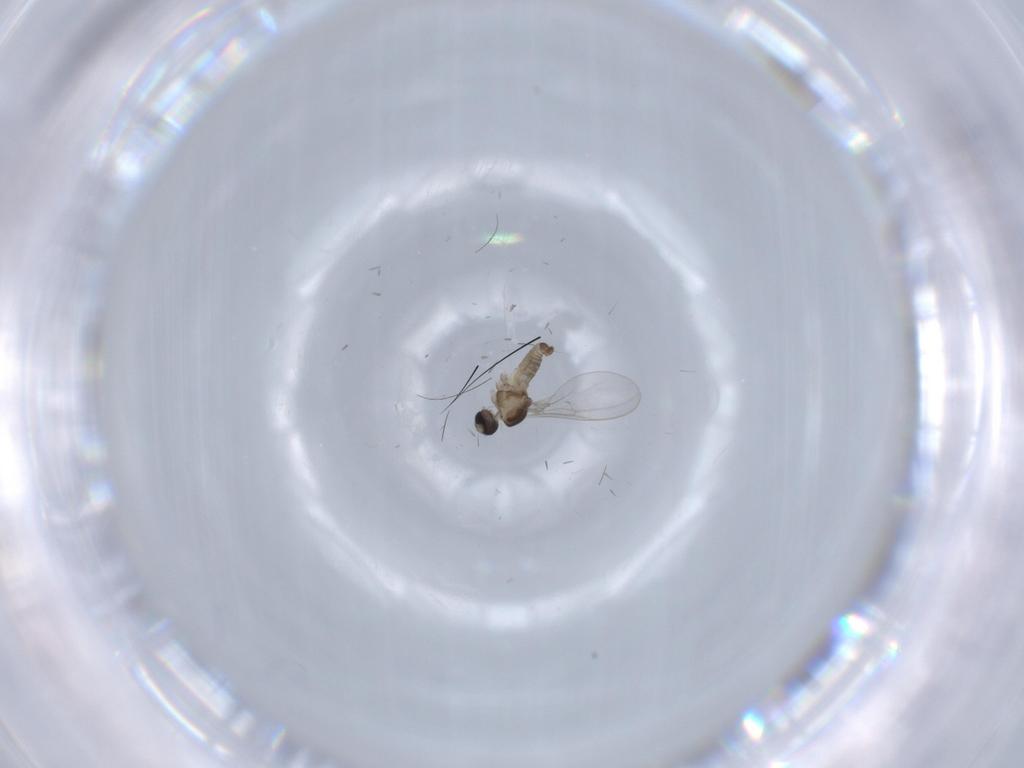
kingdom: Animalia
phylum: Arthropoda
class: Insecta
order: Diptera
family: Cecidomyiidae
